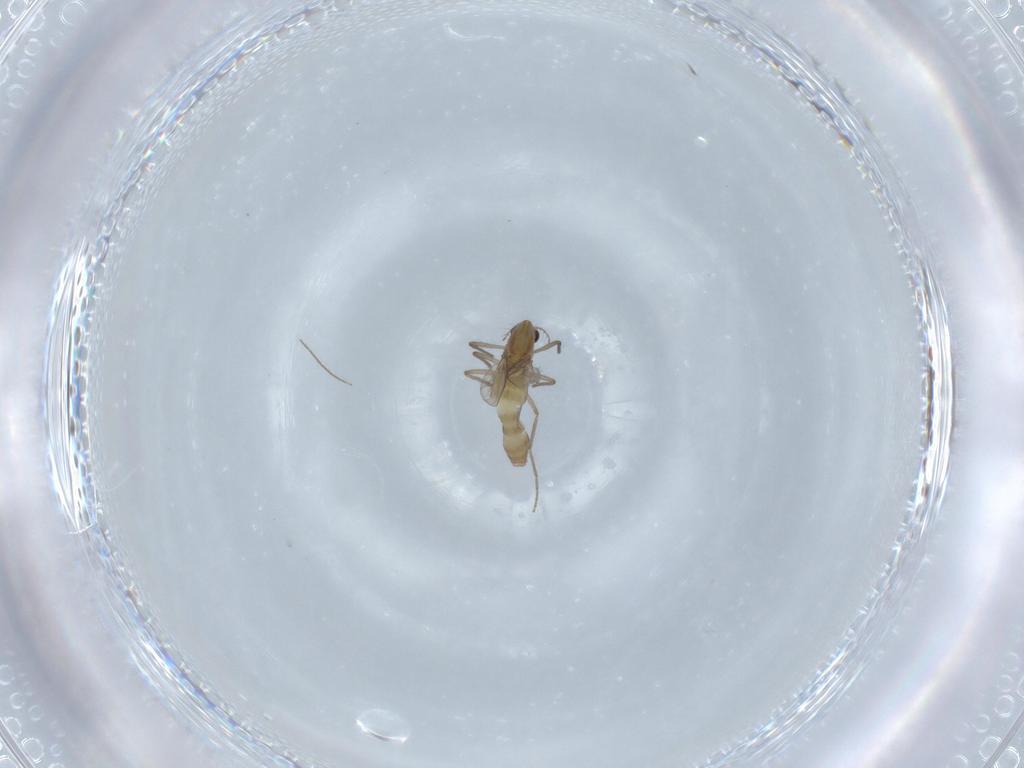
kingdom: Animalia
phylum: Arthropoda
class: Insecta
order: Diptera
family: Chironomidae
